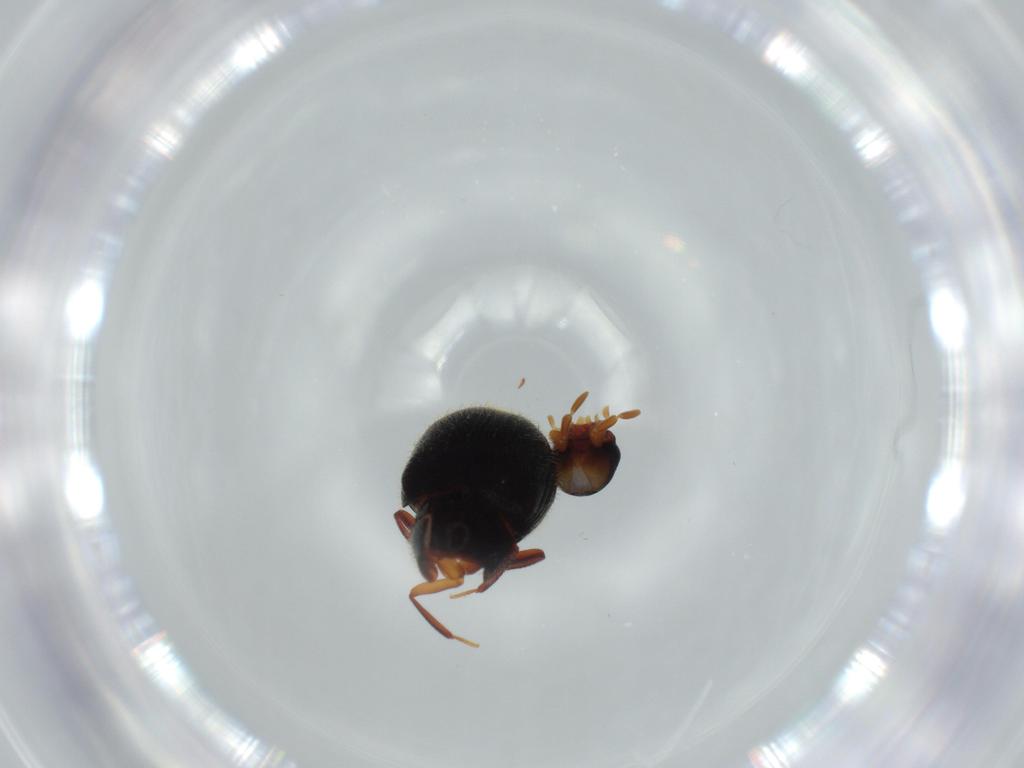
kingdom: Animalia
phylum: Arthropoda
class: Insecta
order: Coleoptera
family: Ptinidae
